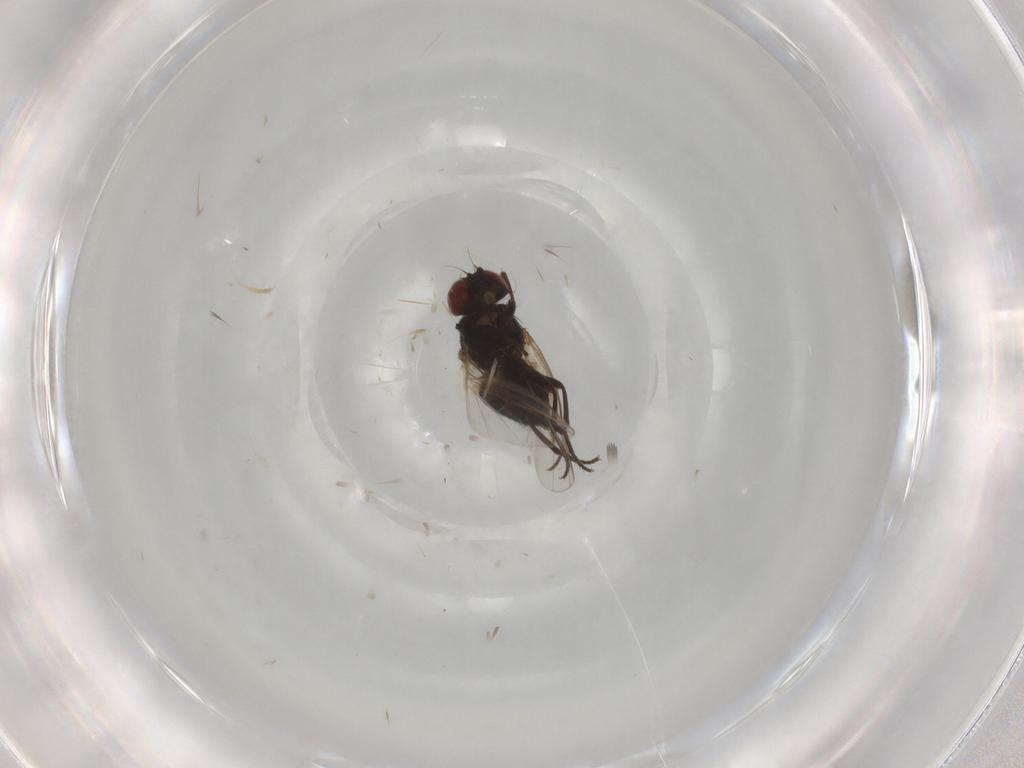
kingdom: Animalia
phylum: Arthropoda
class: Insecta
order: Diptera
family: Agromyzidae
